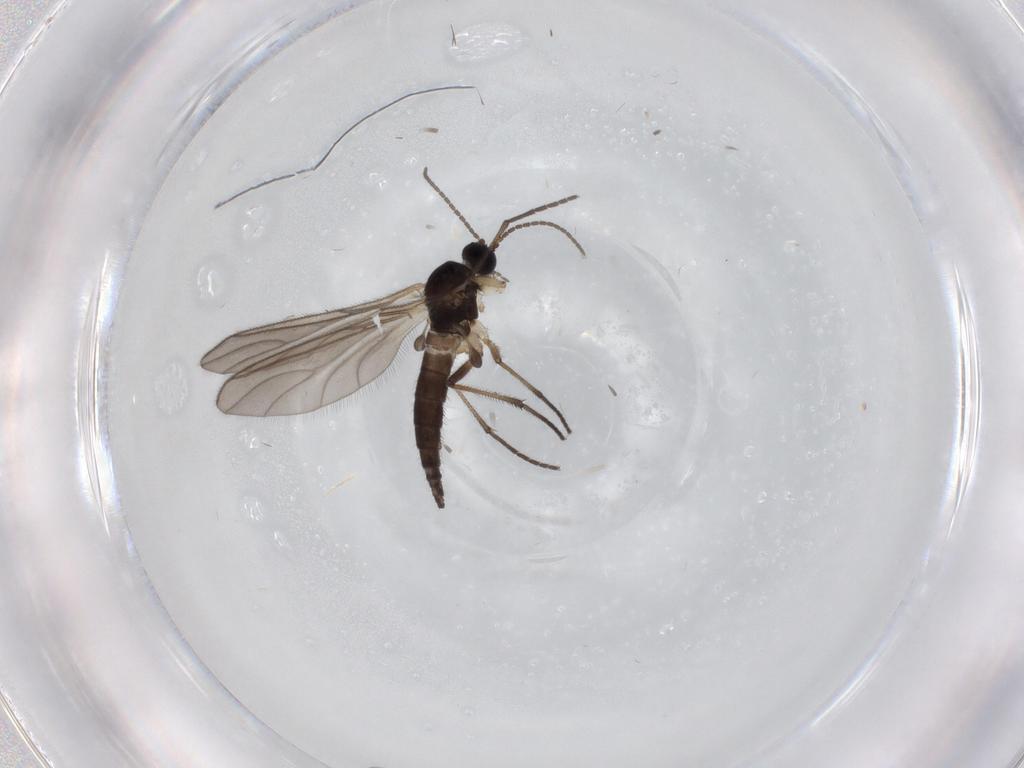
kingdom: Animalia
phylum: Arthropoda
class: Insecta
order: Diptera
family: Sciaridae
